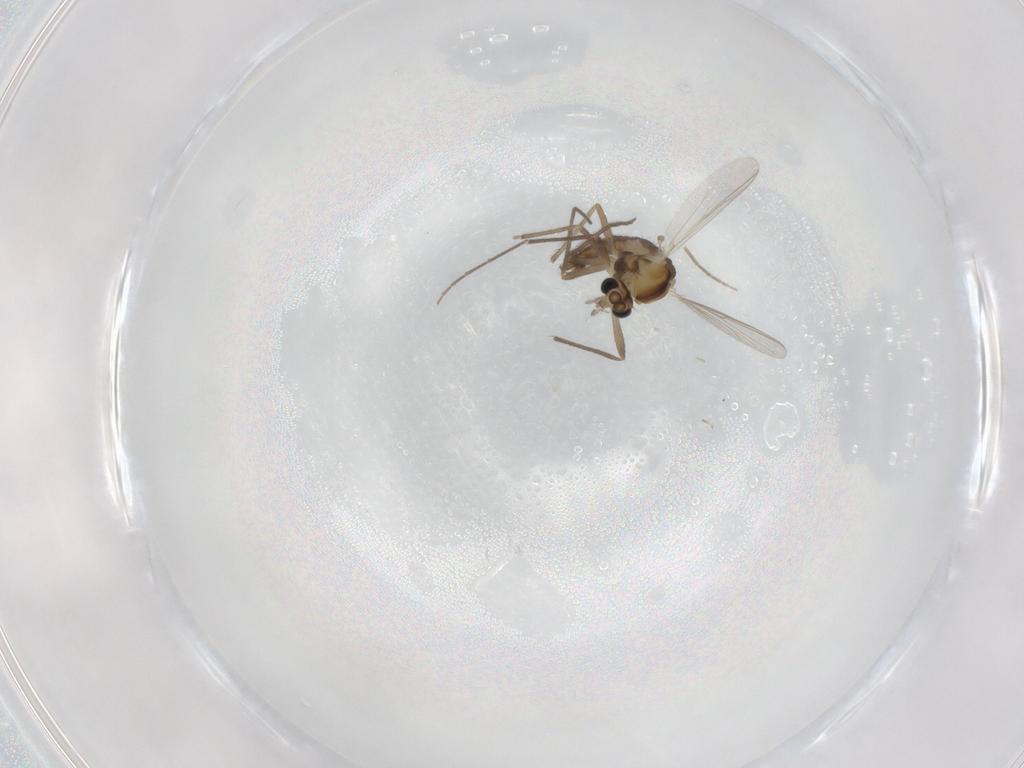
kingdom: Animalia
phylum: Arthropoda
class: Insecta
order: Diptera
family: Chironomidae
